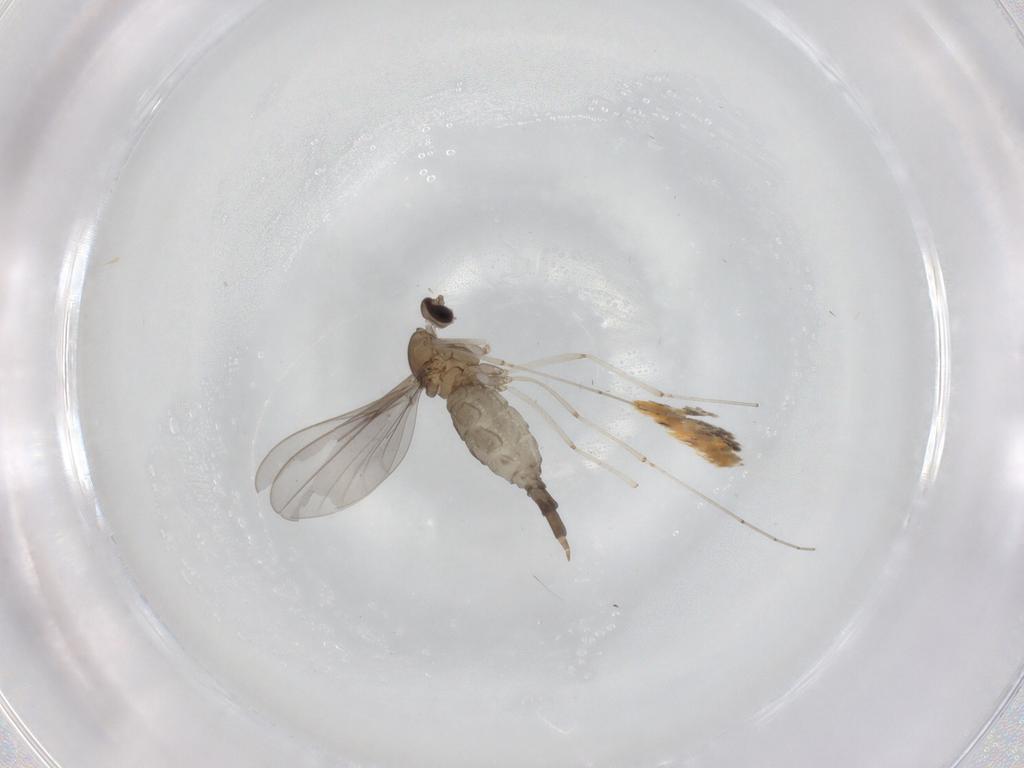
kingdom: Animalia
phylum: Arthropoda
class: Insecta
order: Diptera
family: Cecidomyiidae
